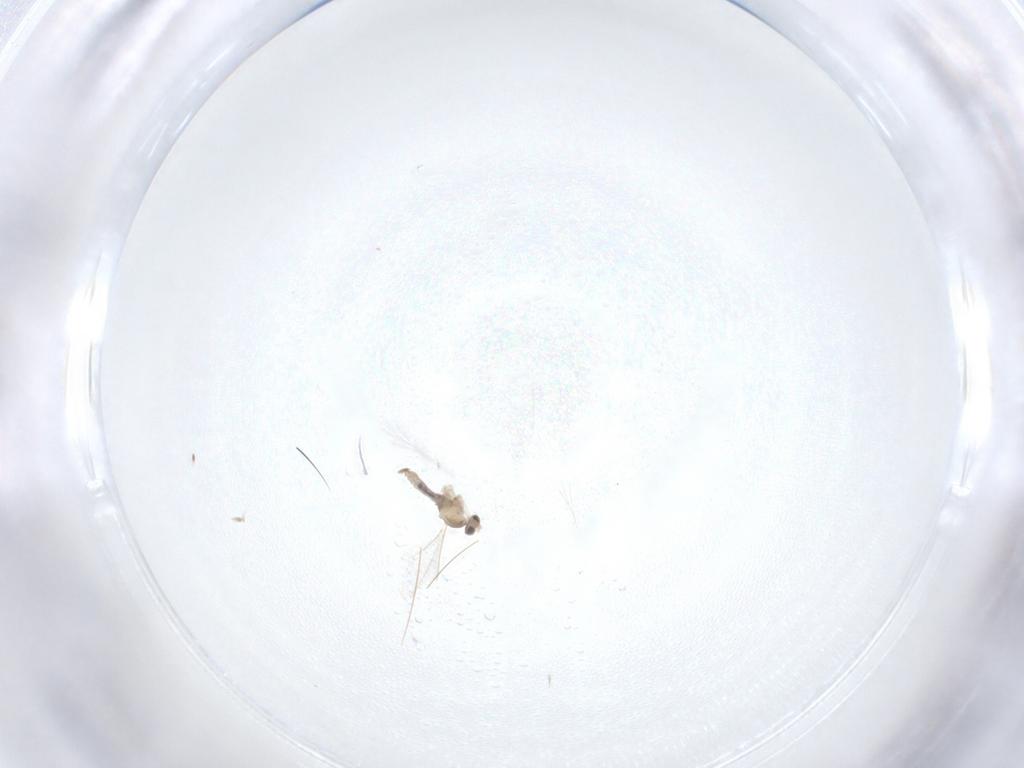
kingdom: Animalia
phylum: Arthropoda
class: Insecta
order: Diptera
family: Cecidomyiidae
